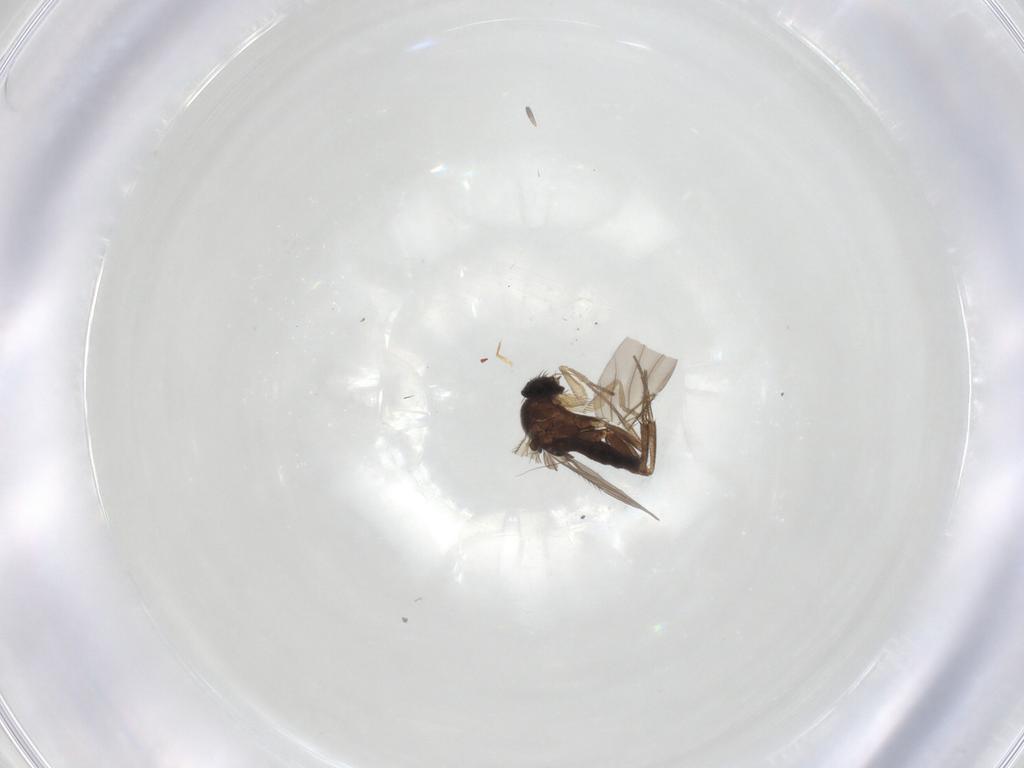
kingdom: Animalia
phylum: Arthropoda
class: Insecta
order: Diptera
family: Phoridae
